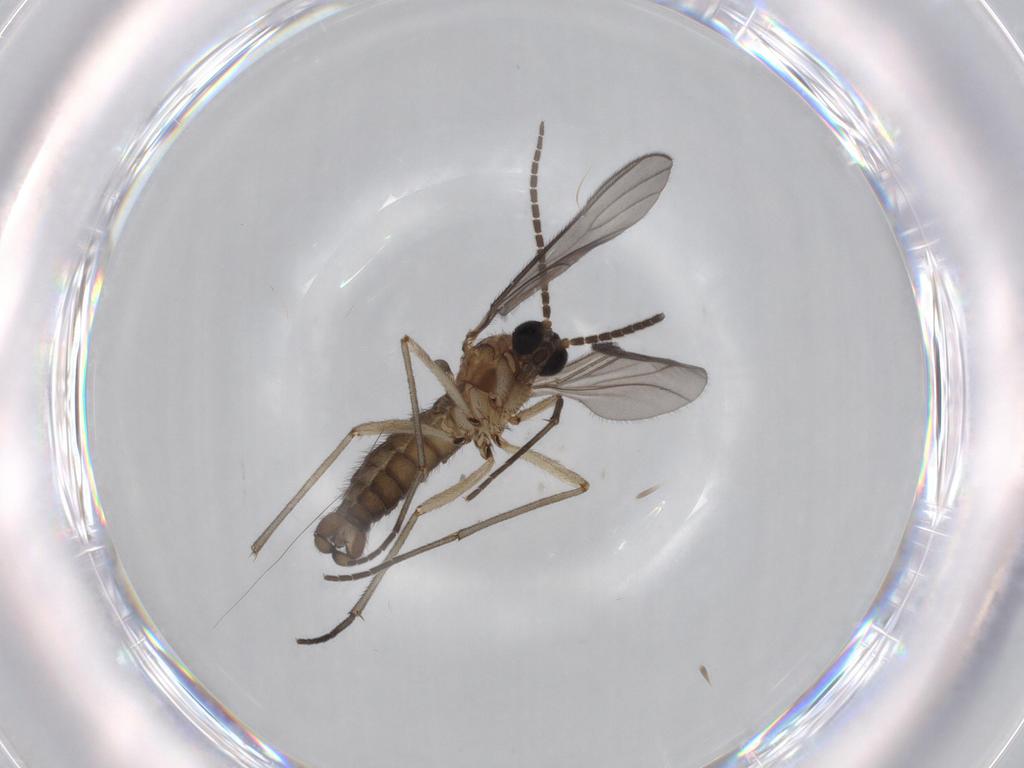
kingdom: Animalia
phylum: Arthropoda
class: Insecta
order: Diptera
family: Sciaridae
